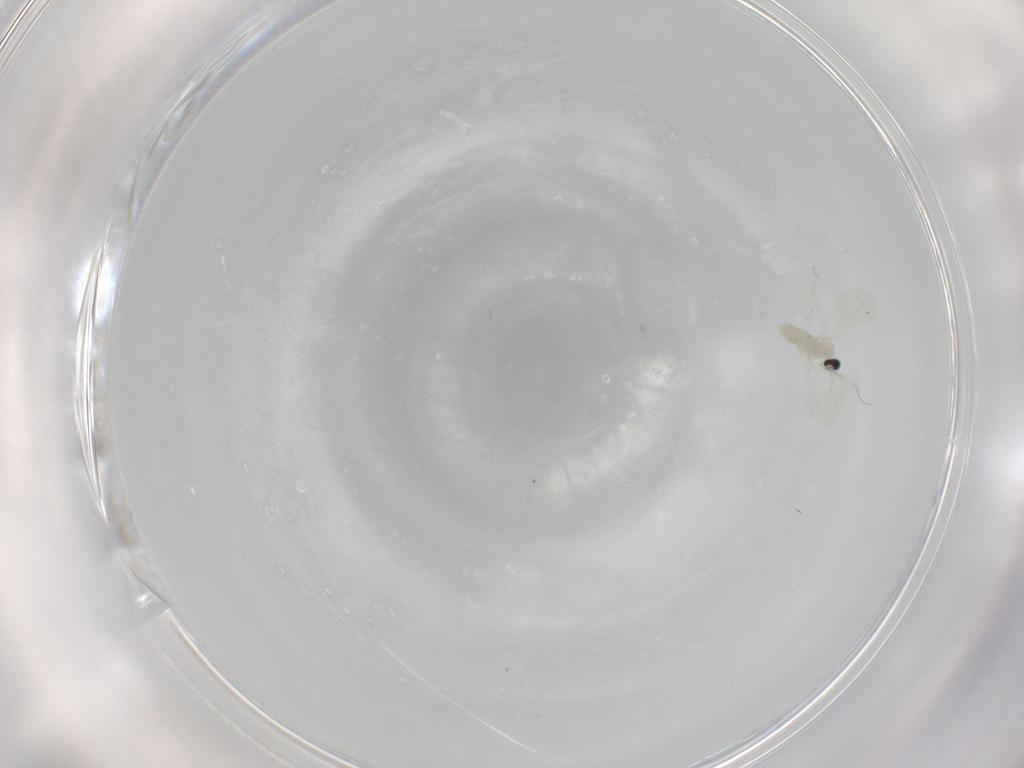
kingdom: Animalia
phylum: Arthropoda
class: Insecta
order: Diptera
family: Cecidomyiidae
